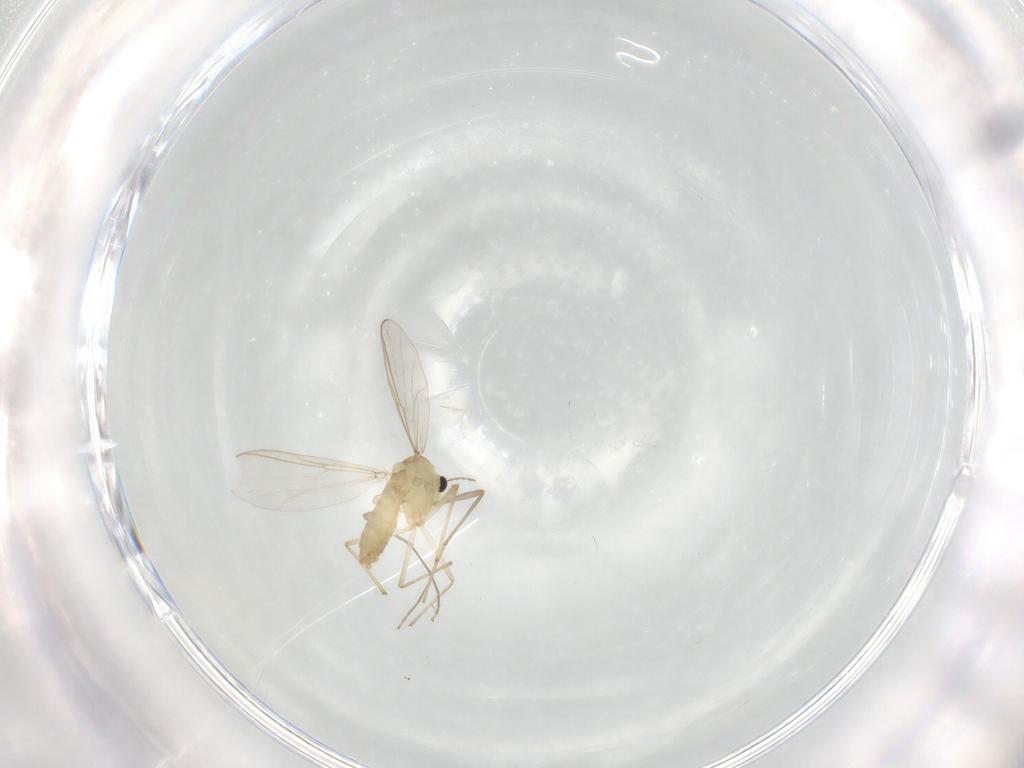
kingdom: Animalia
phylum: Arthropoda
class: Insecta
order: Diptera
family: Chironomidae
